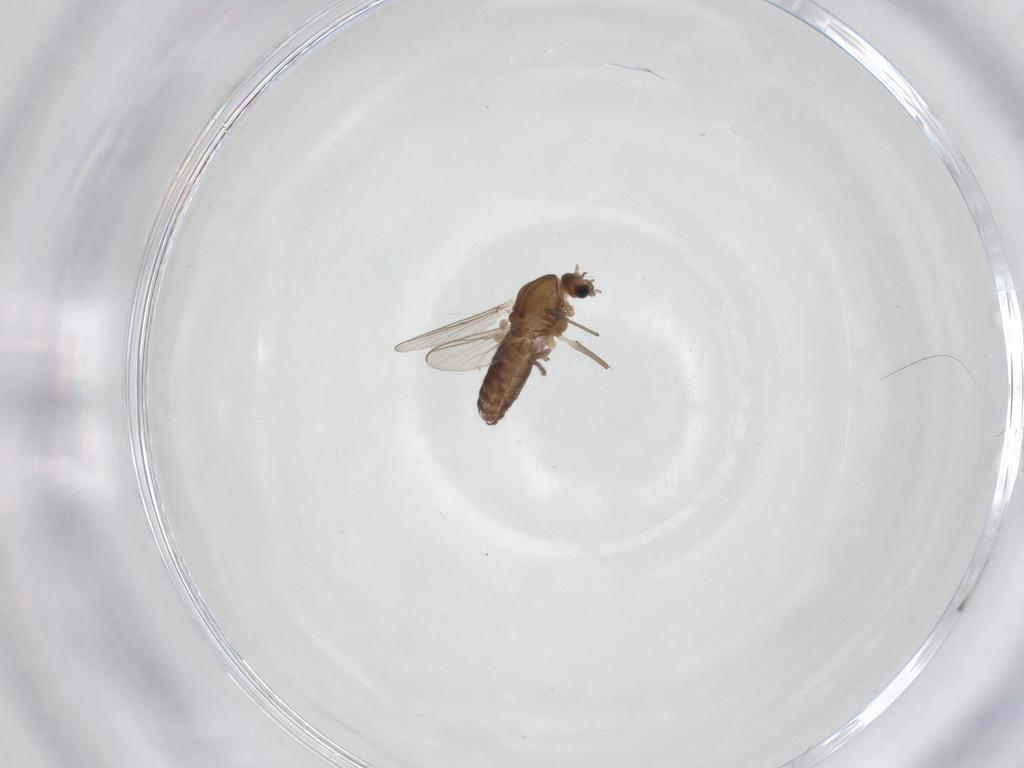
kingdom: Animalia
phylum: Arthropoda
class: Insecta
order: Diptera
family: Chironomidae
